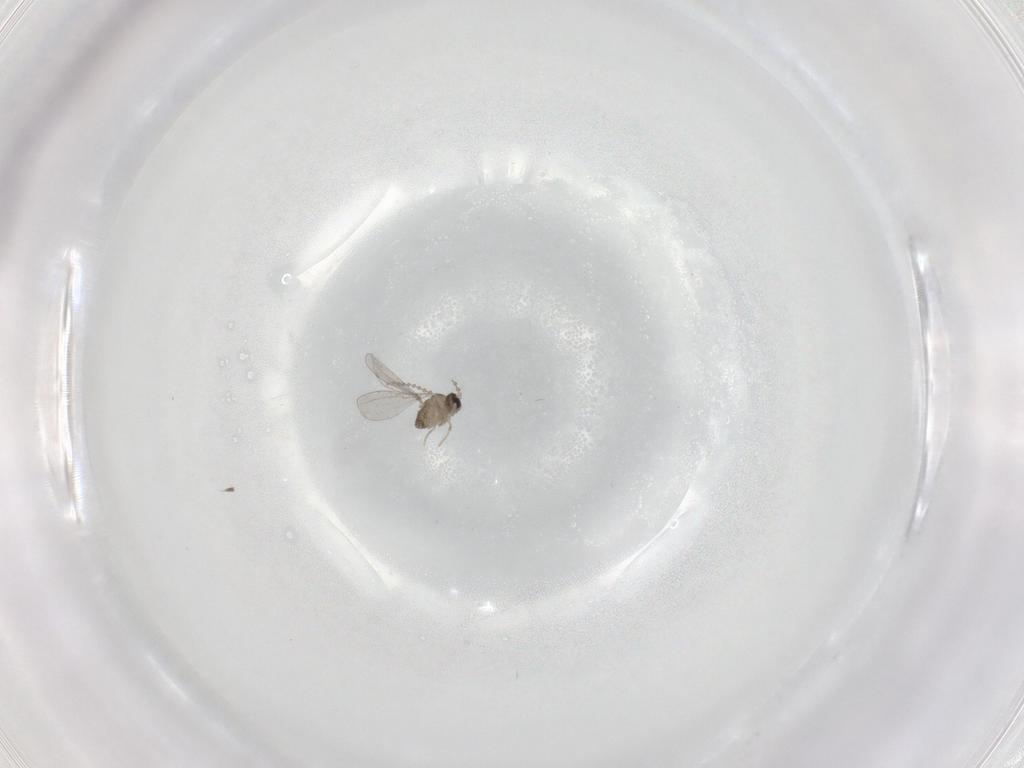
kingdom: Animalia
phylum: Arthropoda
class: Insecta
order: Diptera
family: Cecidomyiidae
